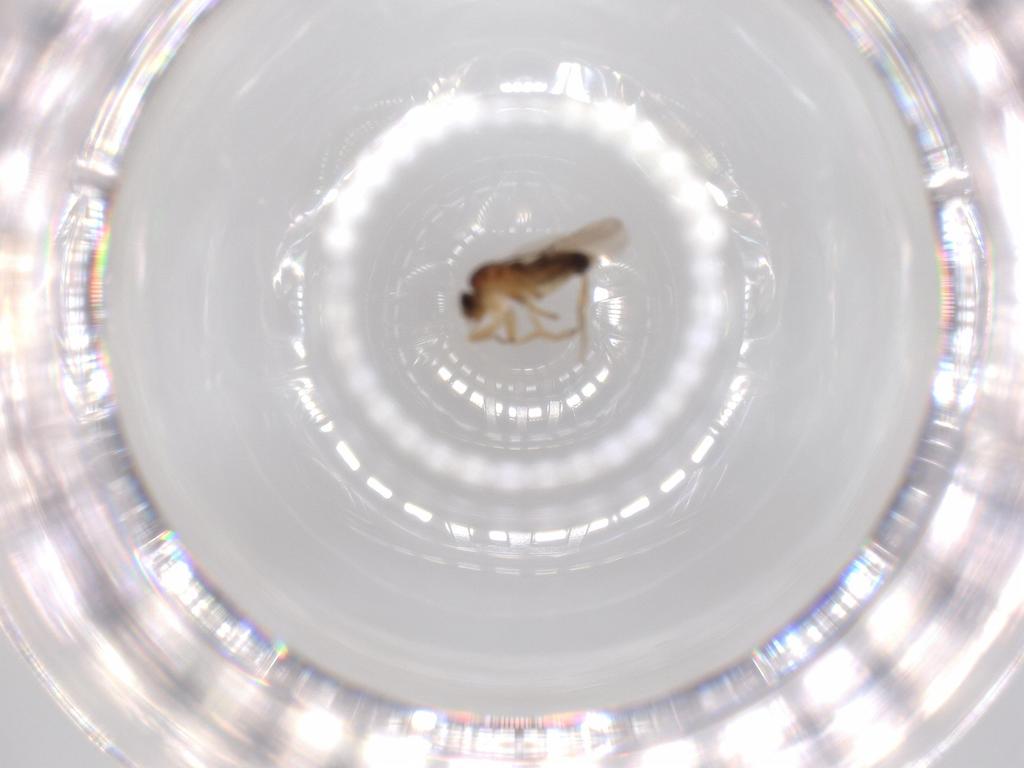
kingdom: Animalia
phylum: Arthropoda
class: Insecta
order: Diptera
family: Phoridae
